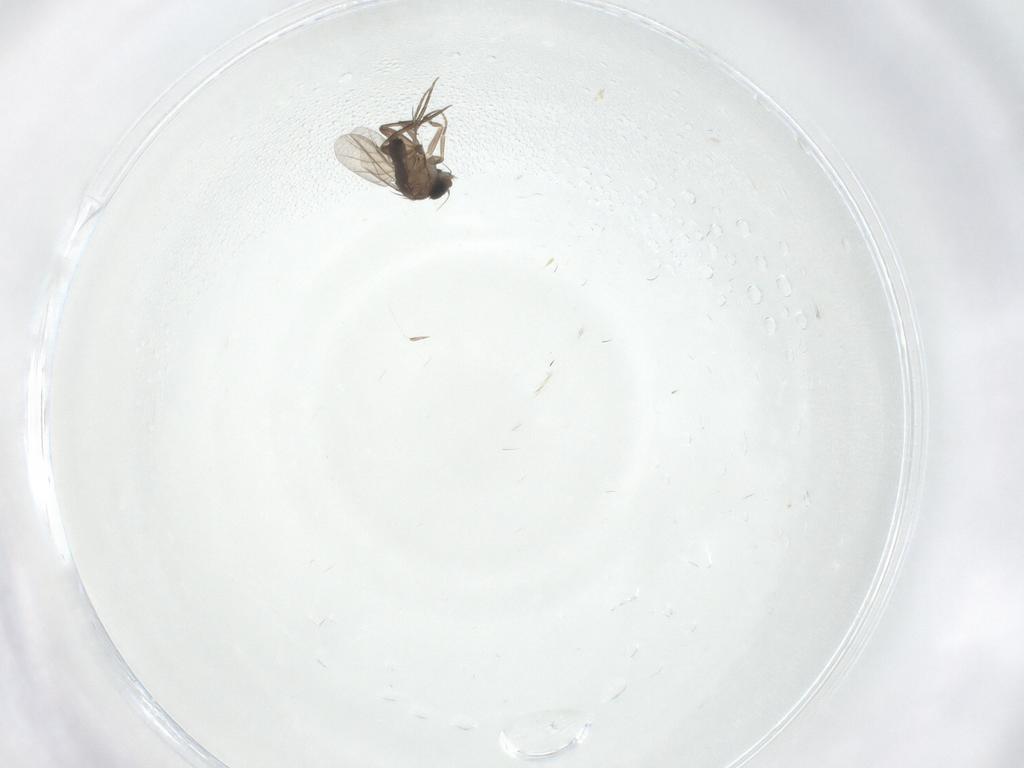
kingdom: Animalia
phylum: Arthropoda
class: Insecta
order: Diptera
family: Phoridae
